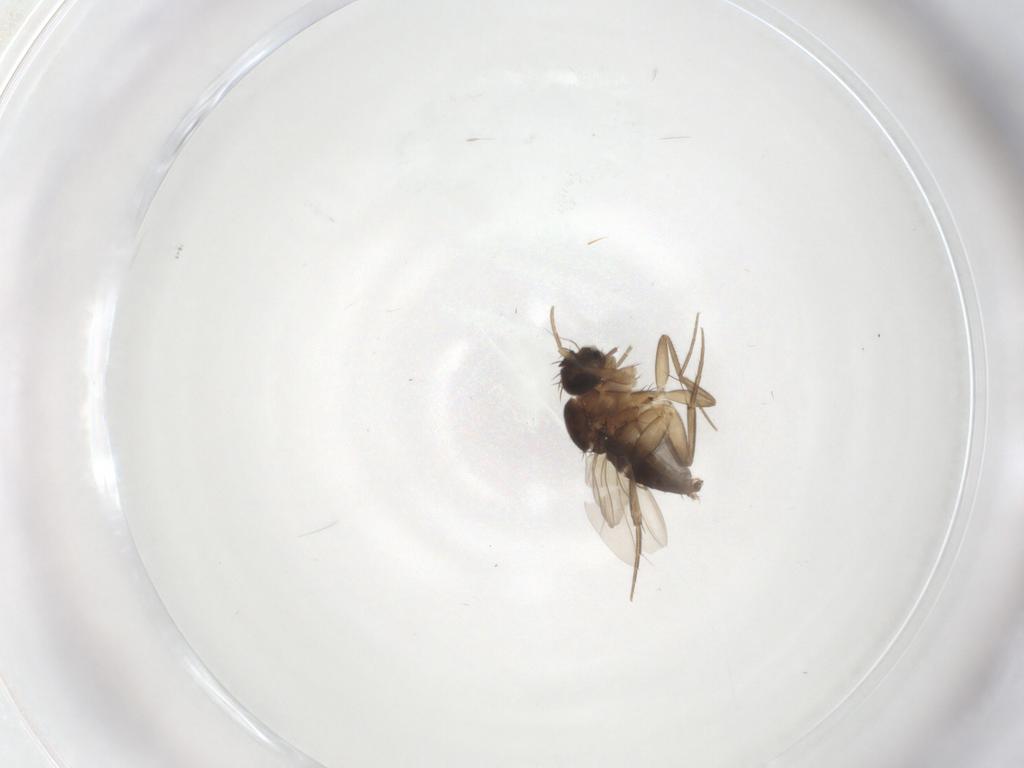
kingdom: Animalia
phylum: Arthropoda
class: Insecta
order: Diptera
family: Phoridae
